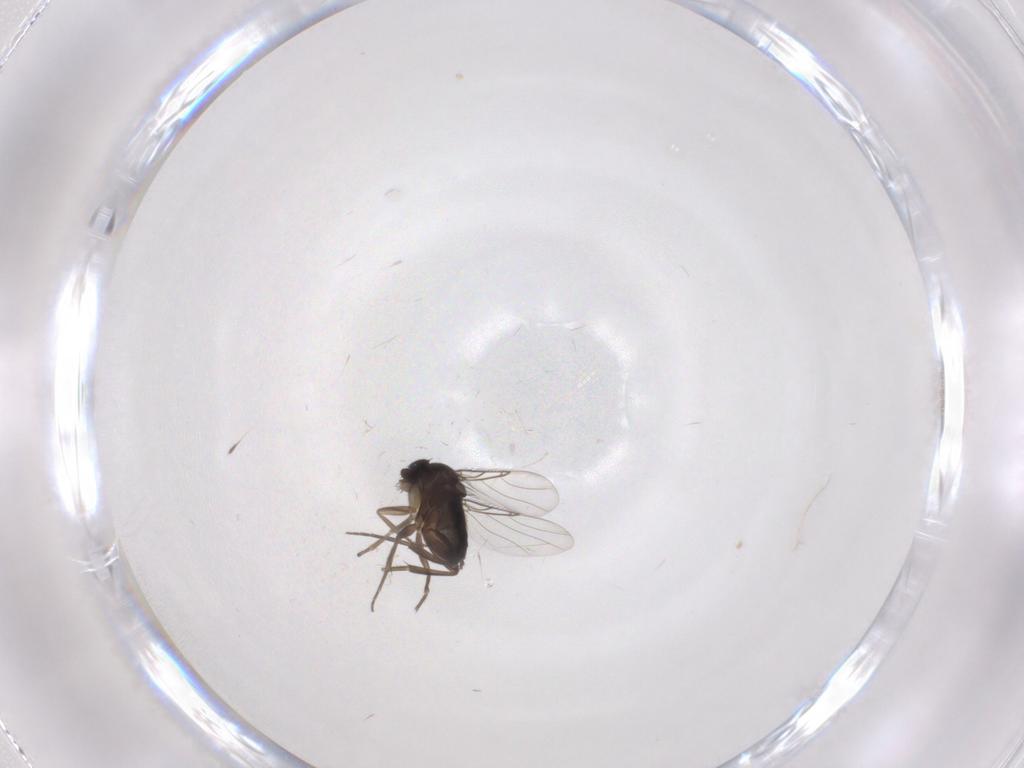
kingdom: Animalia
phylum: Arthropoda
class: Insecta
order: Diptera
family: Phoridae
